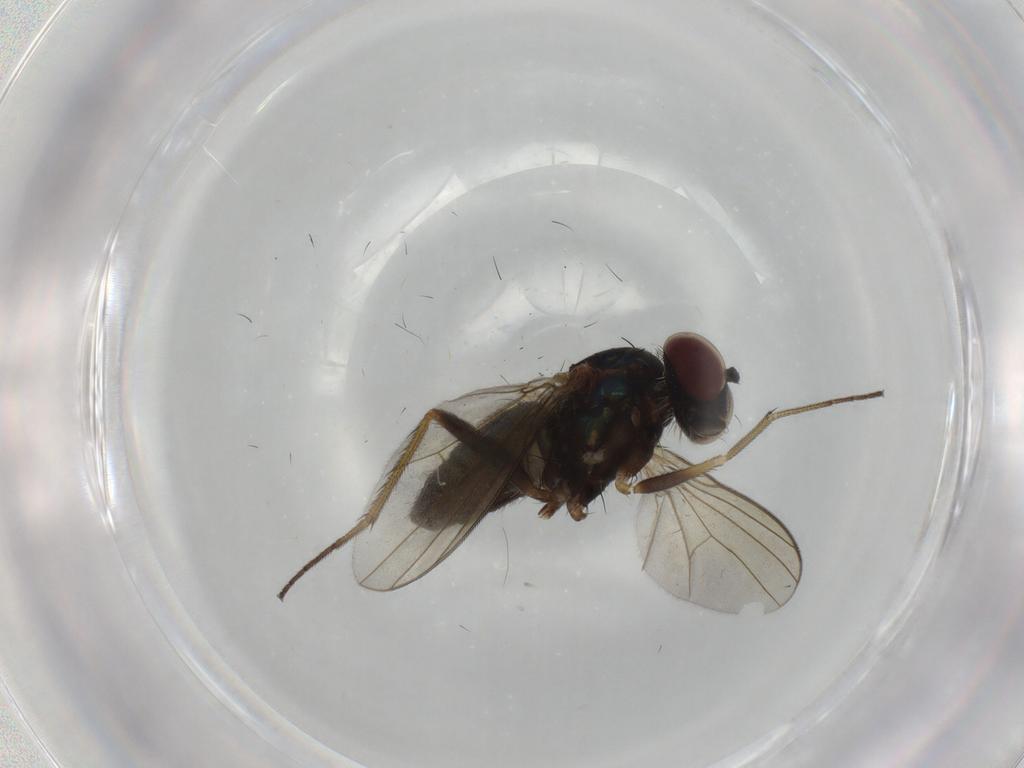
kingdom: Animalia
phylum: Arthropoda
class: Insecta
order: Diptera
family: Dolichopodidae
